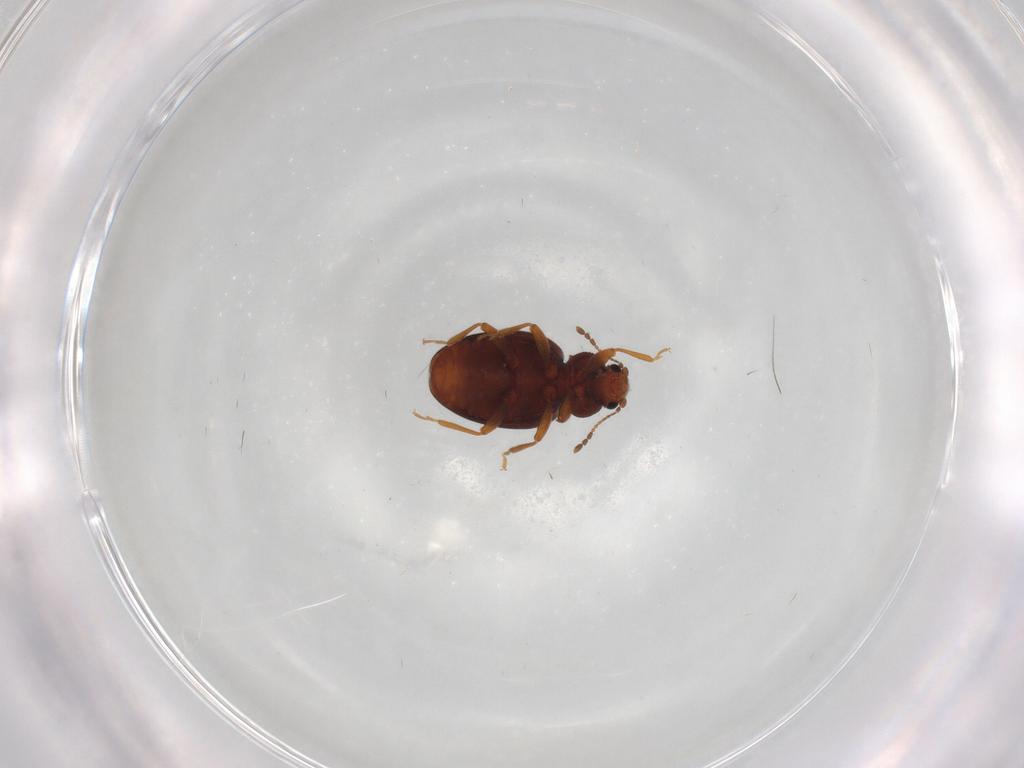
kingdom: Animalia
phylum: Arthropoda
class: Insecta
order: Coleoptera
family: Latridiidae
